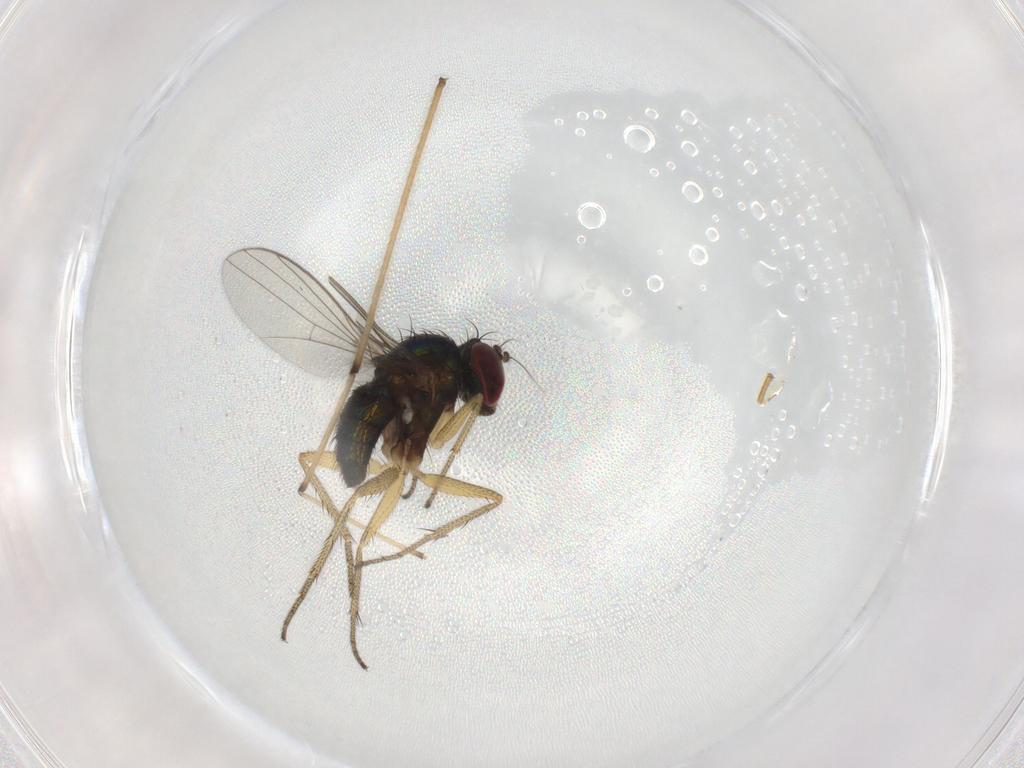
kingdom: Animalia
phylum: Arthropoda
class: Insecta
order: Diptera
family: Dolichopodidae
